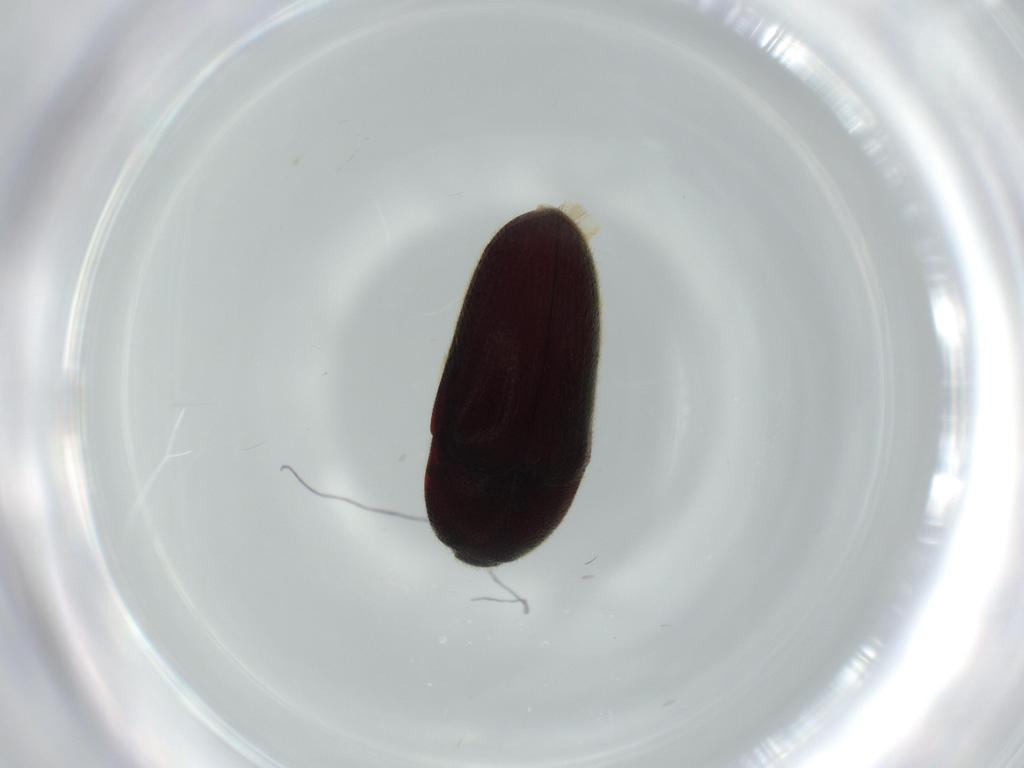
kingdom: Animalia
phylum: Arthropoda
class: Insecta
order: Coleoptera
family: Throscidae
